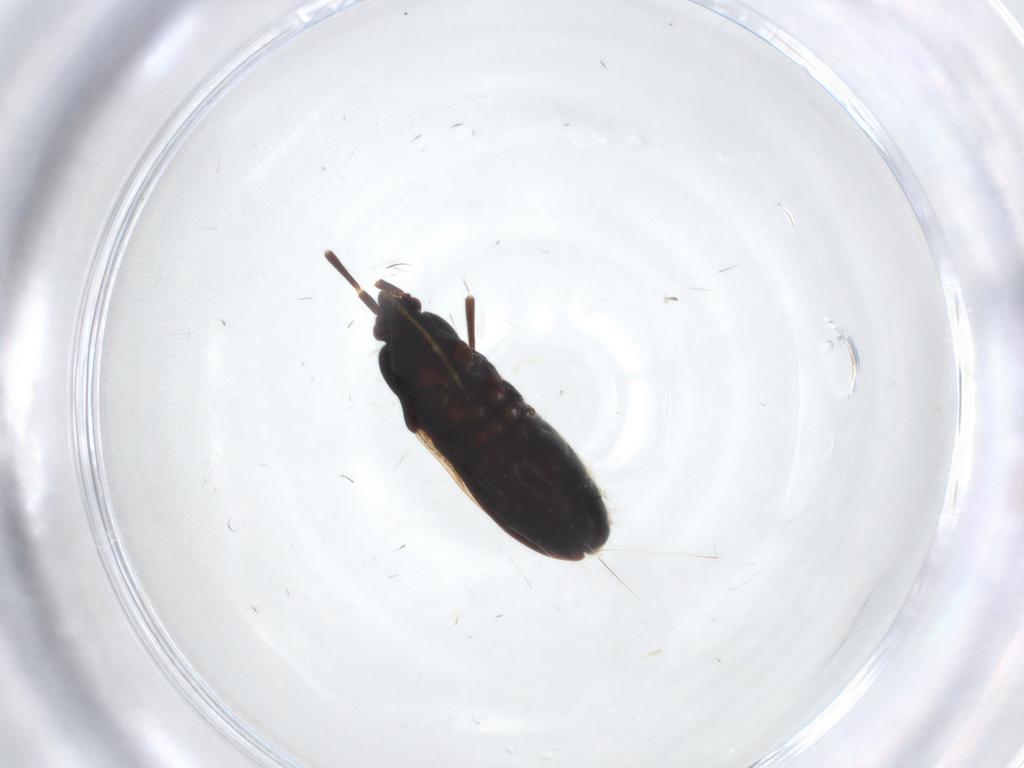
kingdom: Animalia
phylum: Arthropoda
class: Insecta
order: Hemiptera
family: Rhyparochromidae
